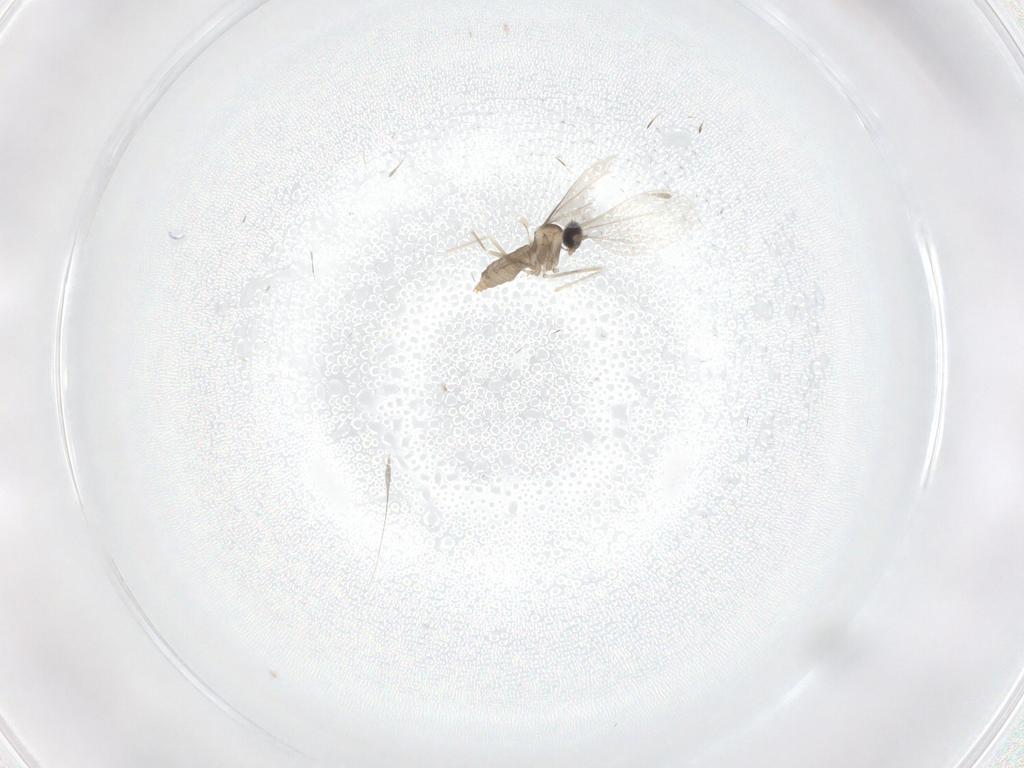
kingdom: Animalia
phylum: Arthropoda
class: Insecta
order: Diptera
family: Cecidomyiidae
